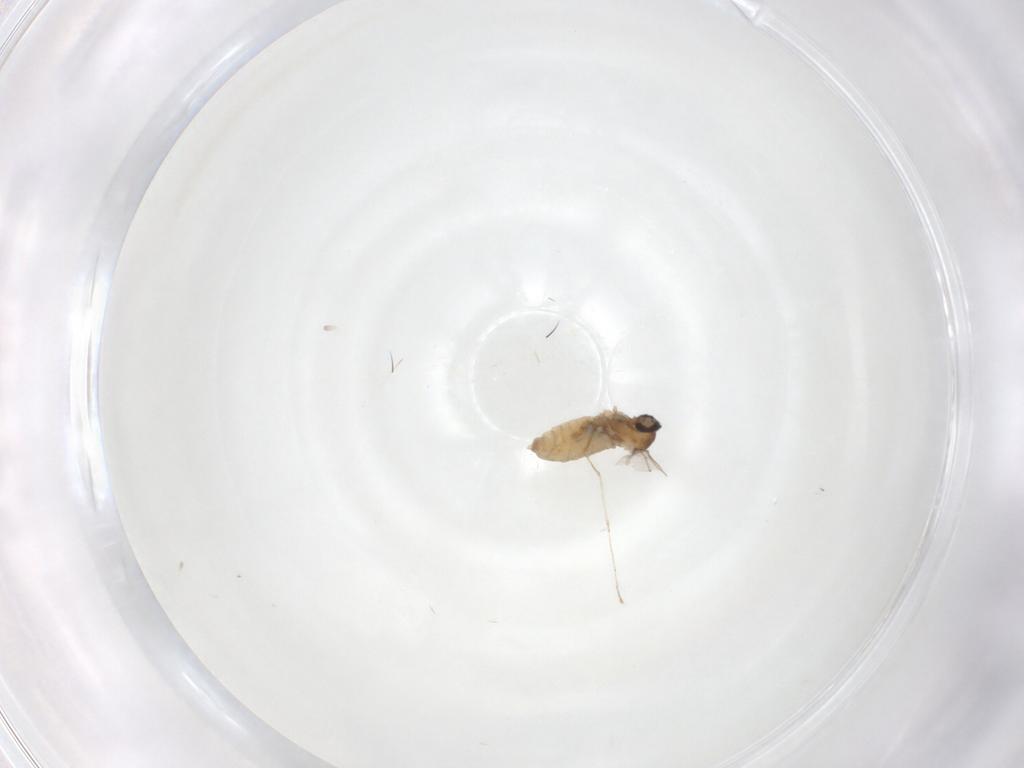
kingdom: Animalia
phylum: Arthropoda
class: Insecta
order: Diptera
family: Cecidomyiidae
